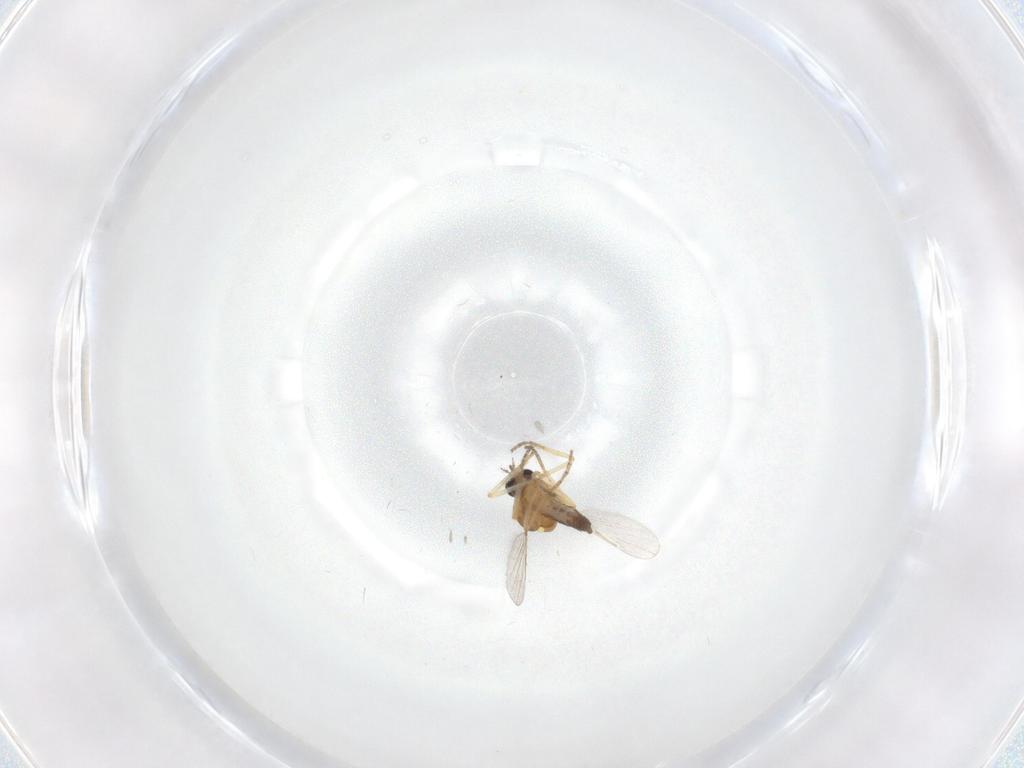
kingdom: Animalia
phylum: Arthropoda
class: Insecta
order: Diptera
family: Ceratopogonidae
